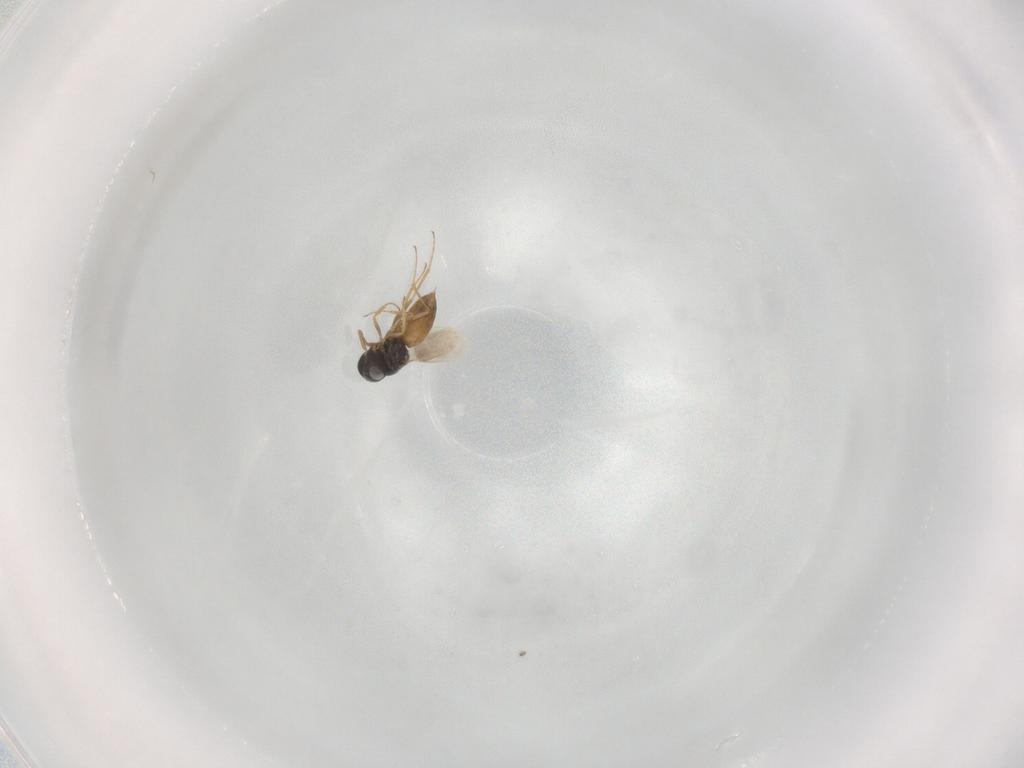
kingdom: Animalia
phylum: Arthropoda
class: Insecta
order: Hymenoptera
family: Scelionidae
